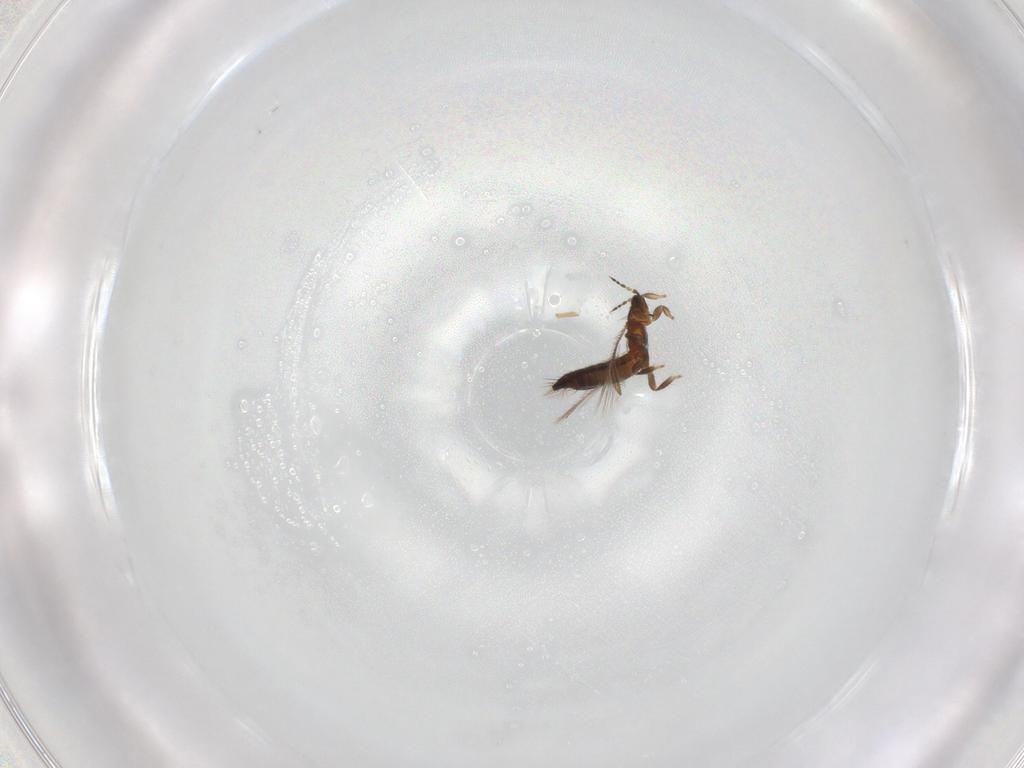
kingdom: Animalia
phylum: Arthropoda
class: Insecta
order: Thysanoptera
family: Thripidae
